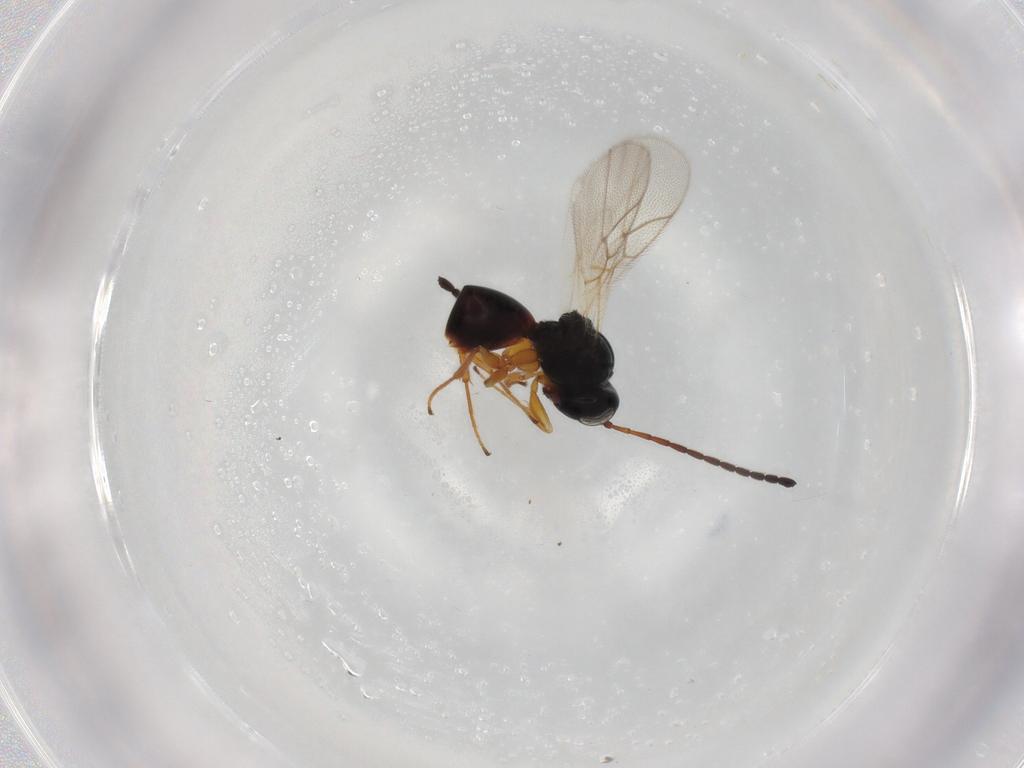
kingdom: Animalia
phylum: Arthropoda
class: Insecta
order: Hymenoptera
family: Figitidae
